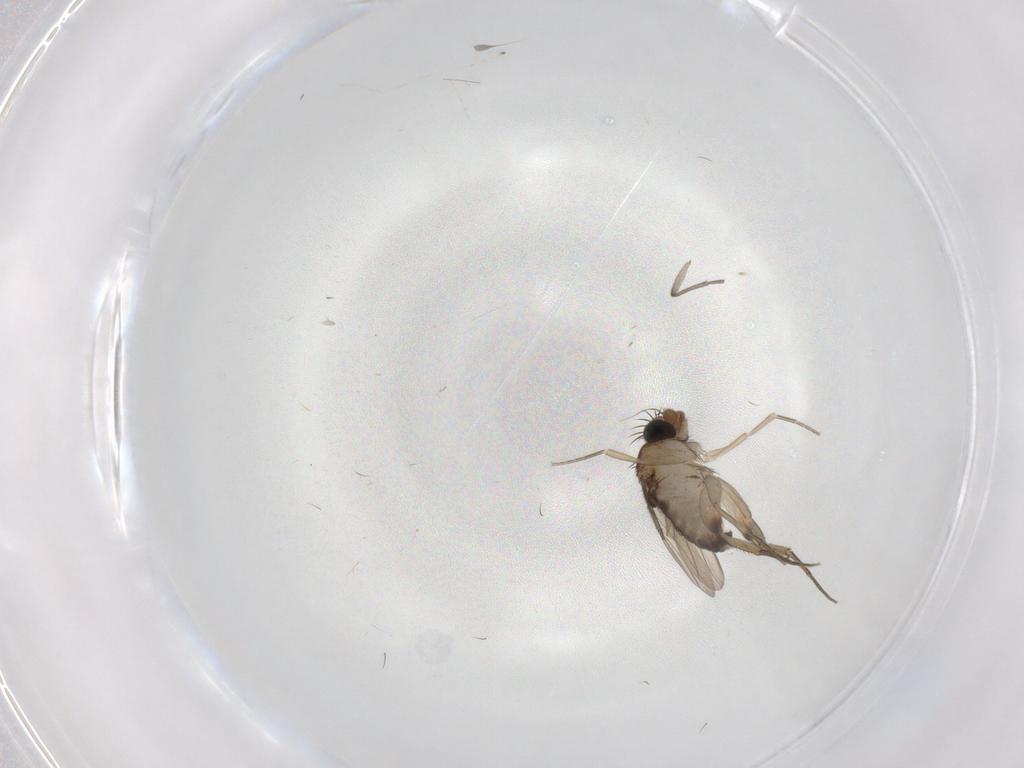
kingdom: Animalia
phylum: Arthropoda
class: Insecta
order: Diptera
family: Phoridae
